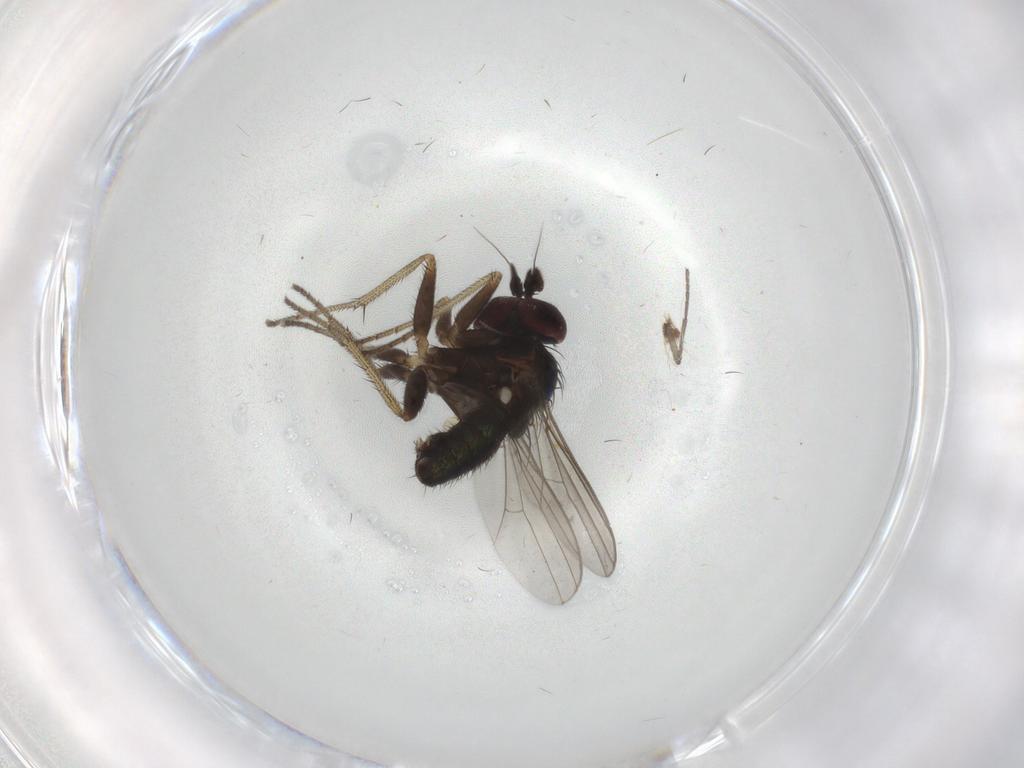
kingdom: Animalia
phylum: Arthropoda
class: Insecta
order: Diptera
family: Dolichopodidae
